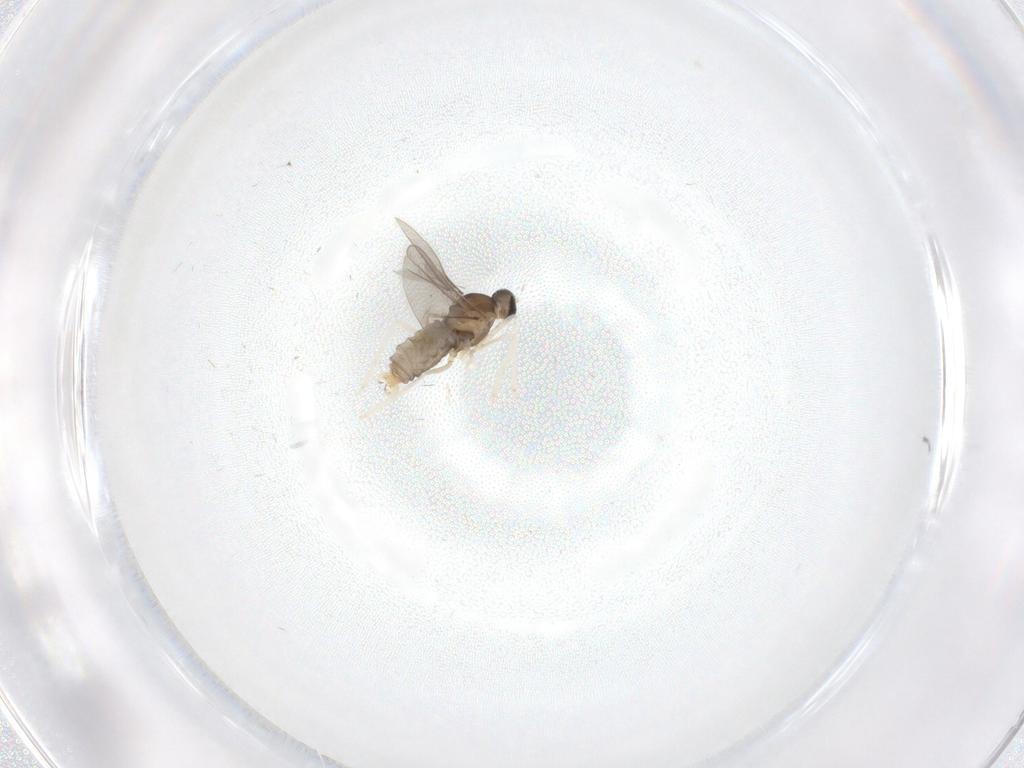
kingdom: Animalia
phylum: Arthropoda
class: Insecta
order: Diptera
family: Cecidomyiidae
